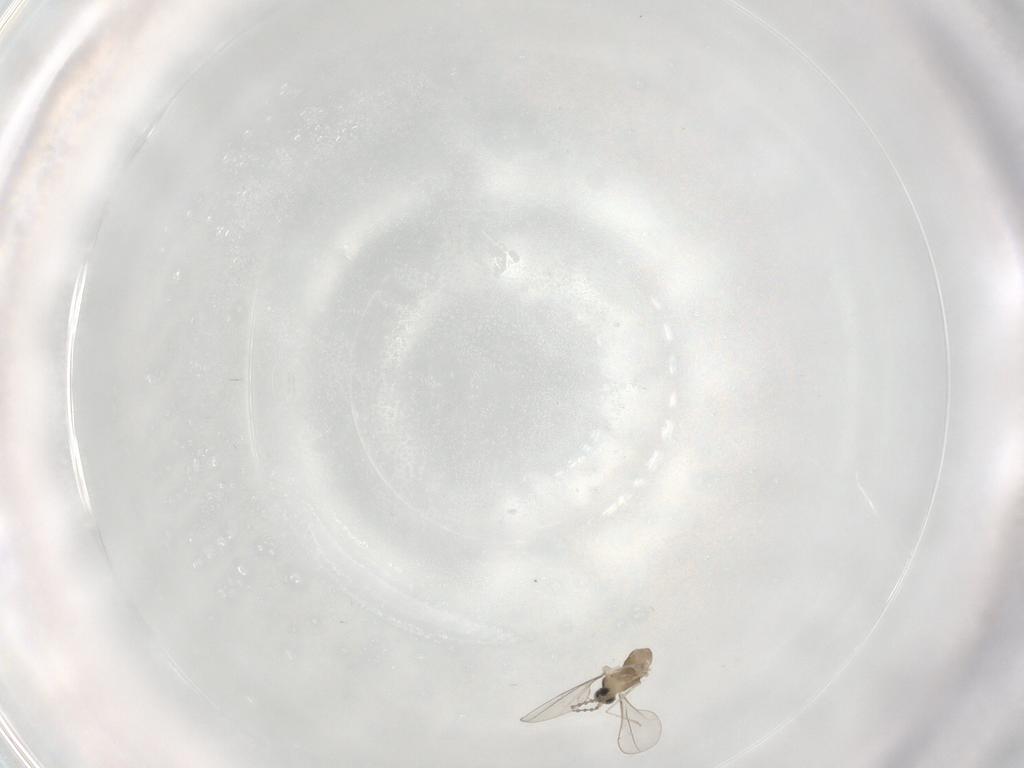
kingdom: Animalia
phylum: Arthropoda
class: Insecta
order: Diptera
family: Cecidomyiidae
